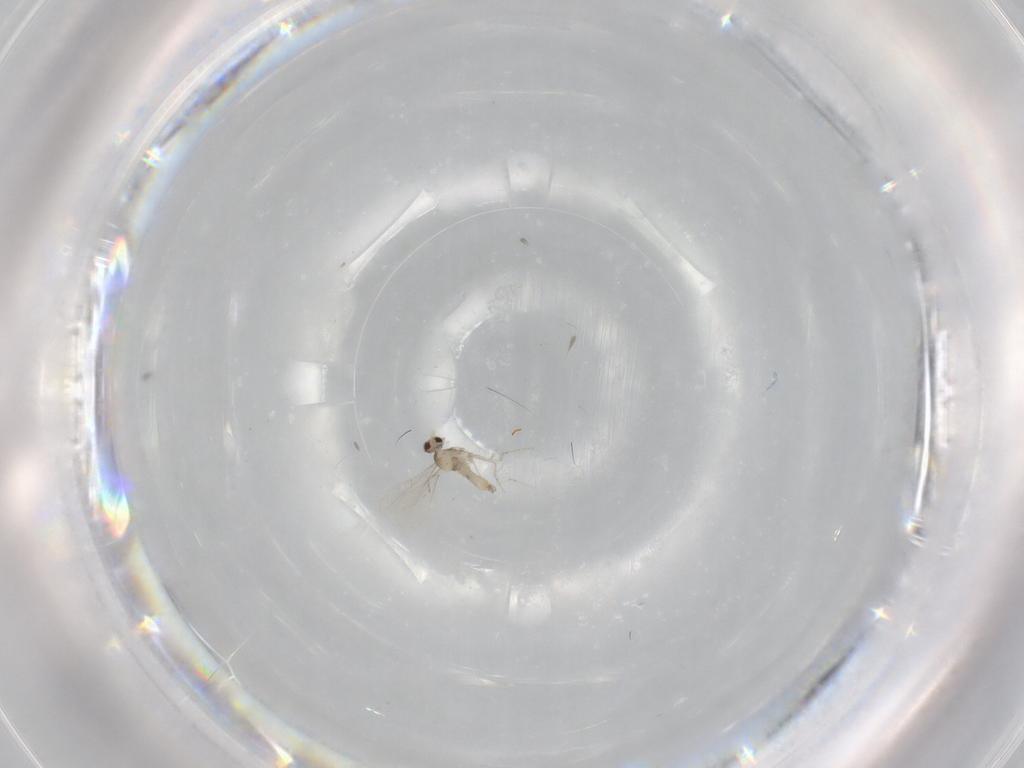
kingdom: Animalia
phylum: Arthropoda
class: Insecta
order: Diptera
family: Cecidomyiidae
